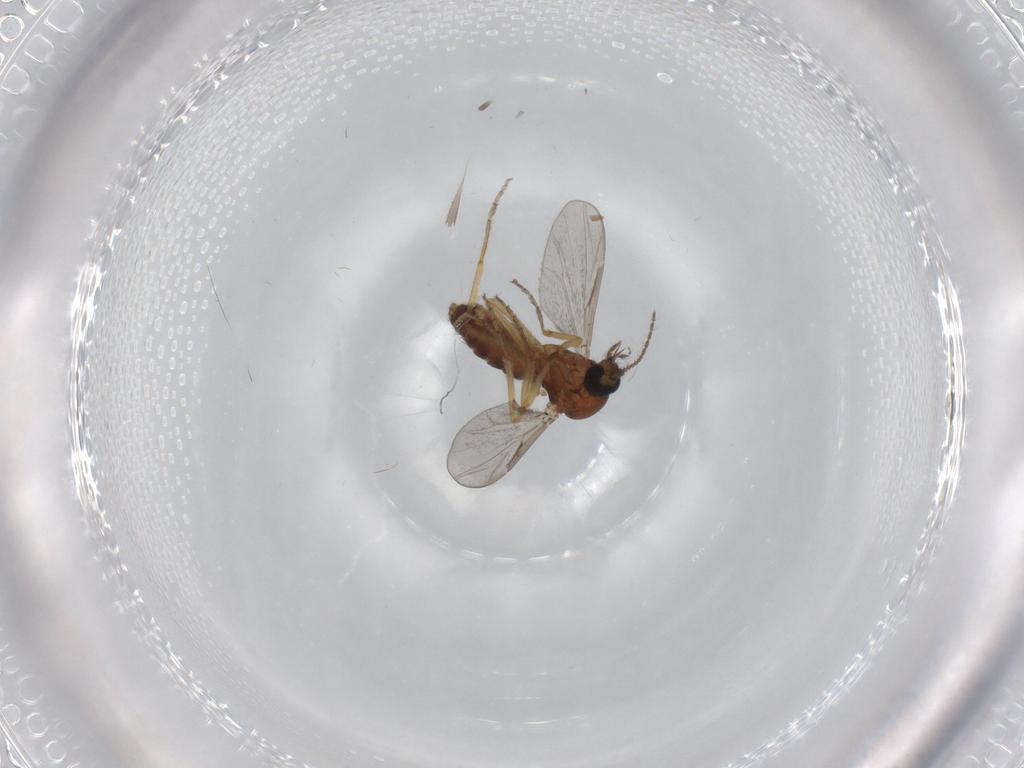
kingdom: Animalia
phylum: Arthropoda
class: Insecta
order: Diptera
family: Ceratopogonidae
